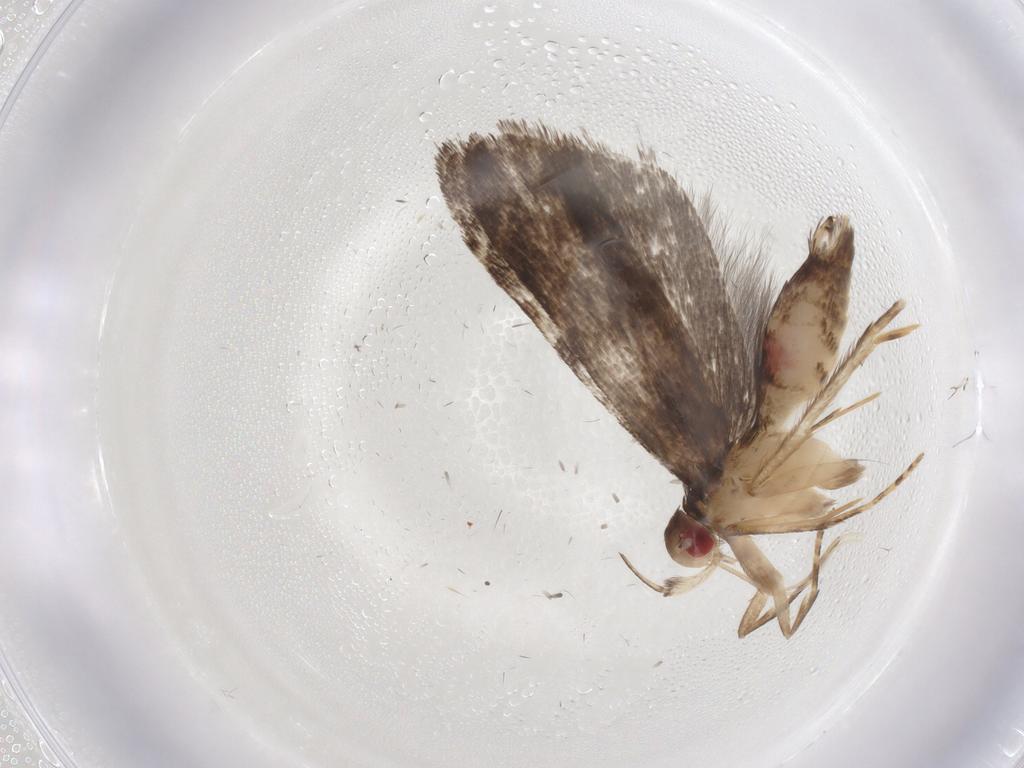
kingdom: Animalia
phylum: Arthropoda
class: Insecta
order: Lepidoptera
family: Gelechiidae
